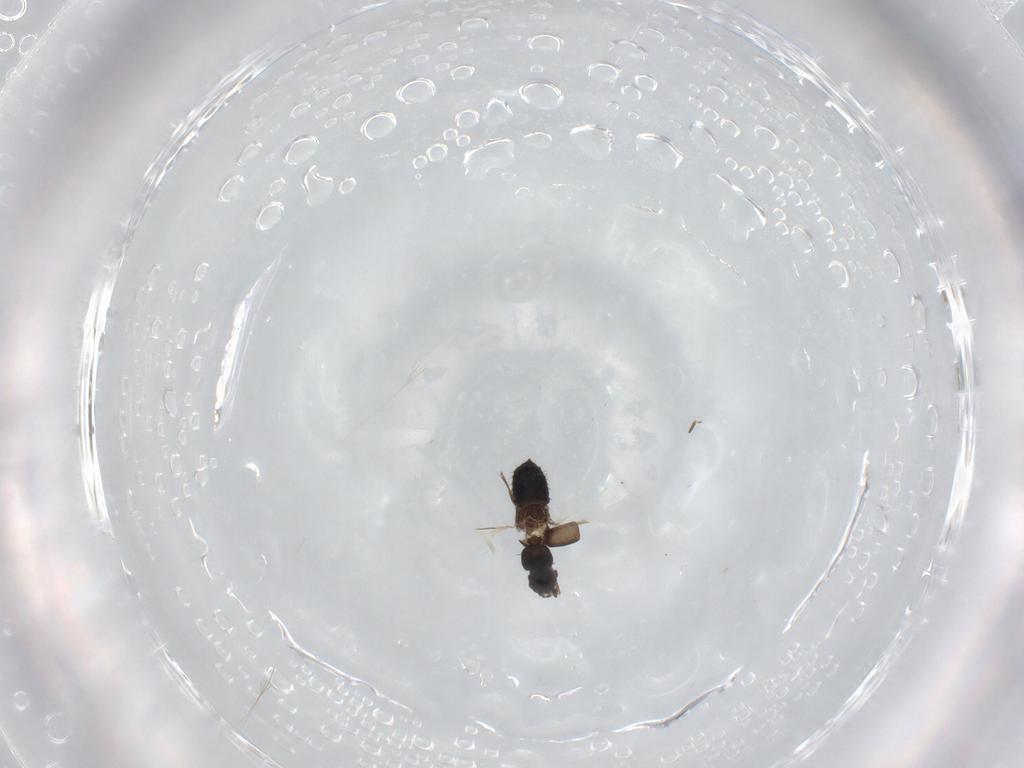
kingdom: Animalia
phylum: Arthropoda
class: Insecta
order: Coleoptera
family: Staphylinidae
